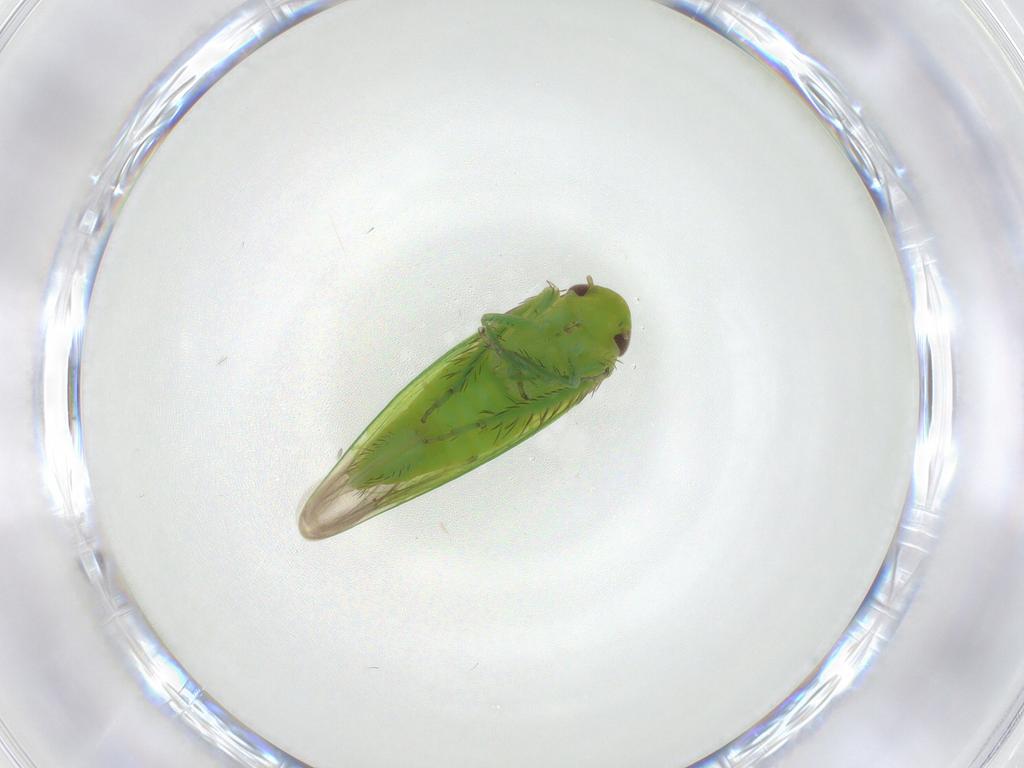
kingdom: Animalia
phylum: Arthropoda
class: Insecta
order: Hemiptera
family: Cicadellidae
